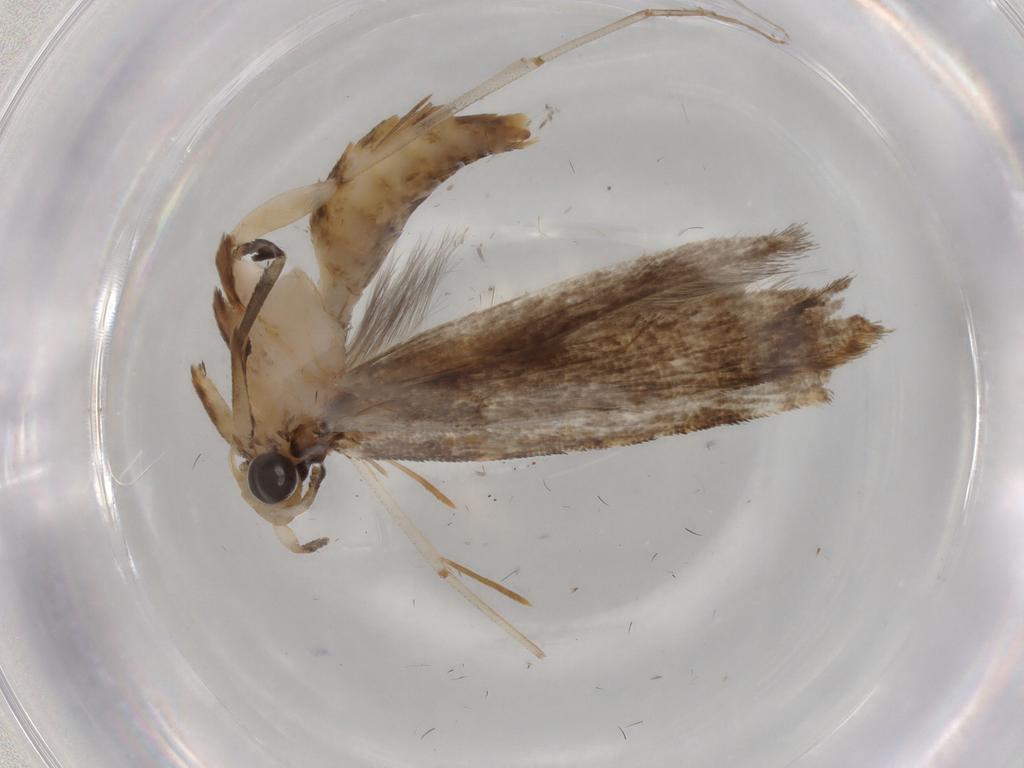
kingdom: Animalia
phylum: Arthropoda
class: Insecta
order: Lepidoptera
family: Tineidae
